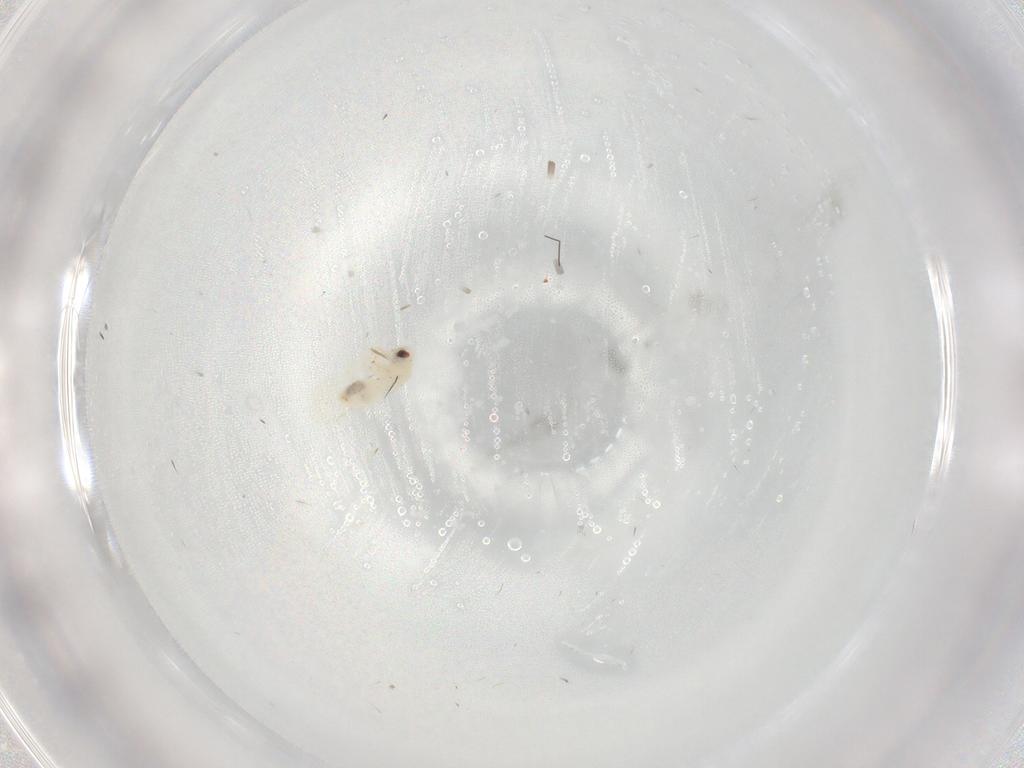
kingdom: Animalia
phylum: Arthropoda
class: Insecta
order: Hemiptera
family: Aleyrodidae
